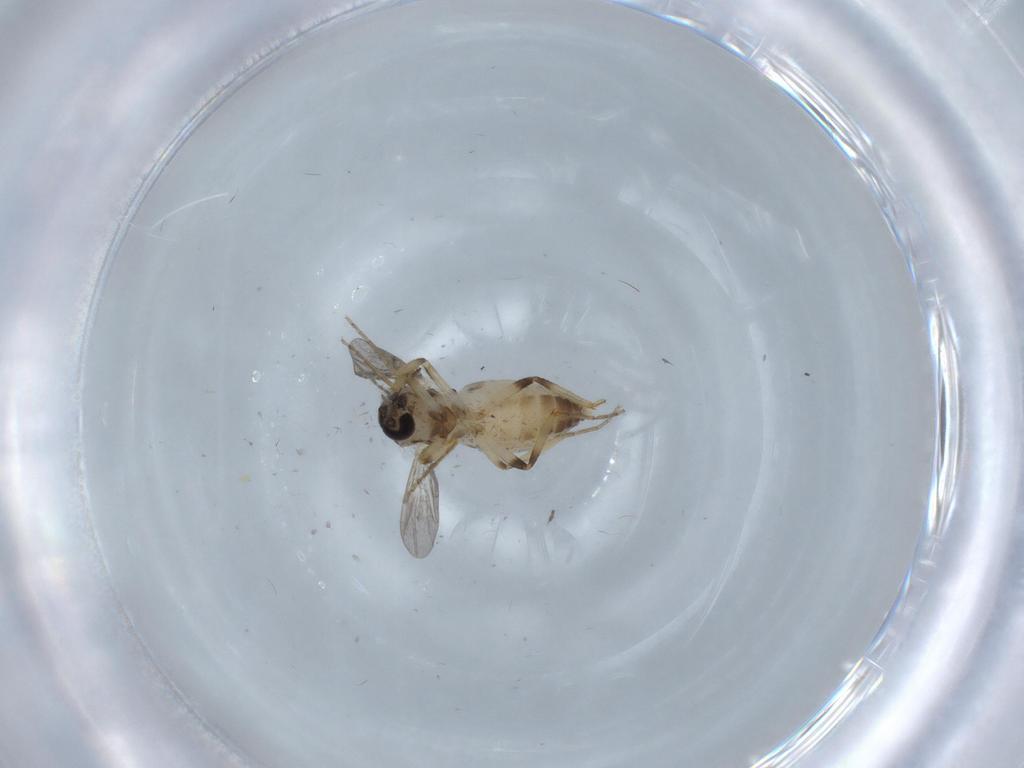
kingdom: Animalia
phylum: Arthropoda
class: Insecta
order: Diptera
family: Ceratopogonidae
